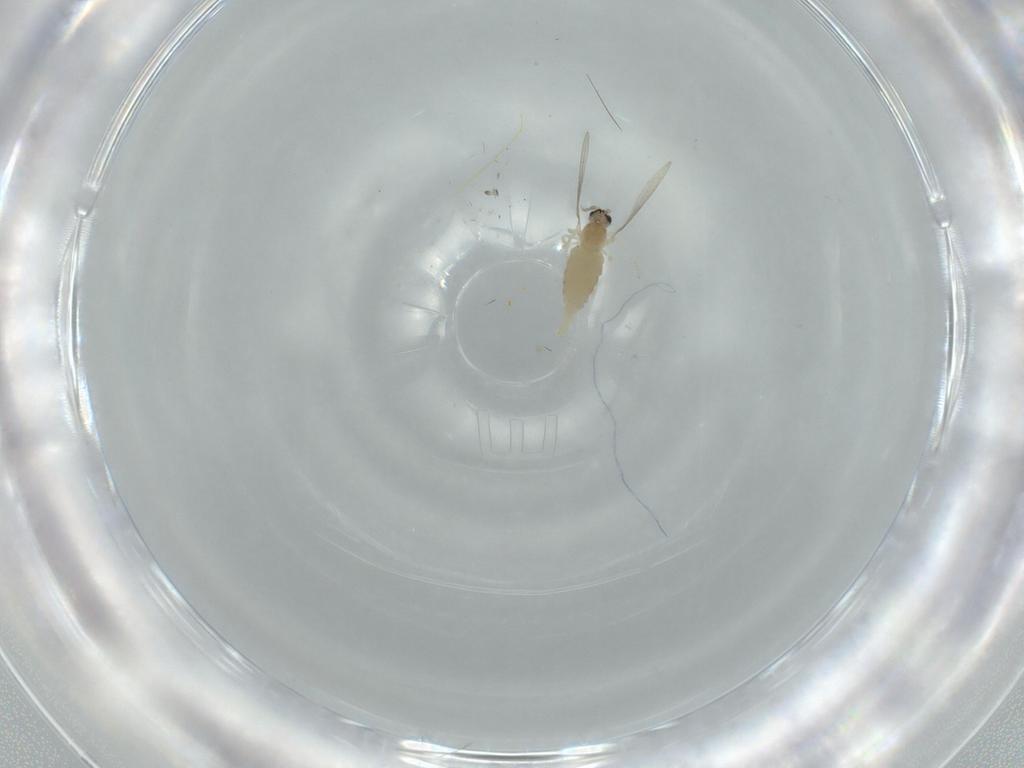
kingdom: Animalia
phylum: Arthropoda
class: Insecta
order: Diptera
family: Cecidomyiidae
